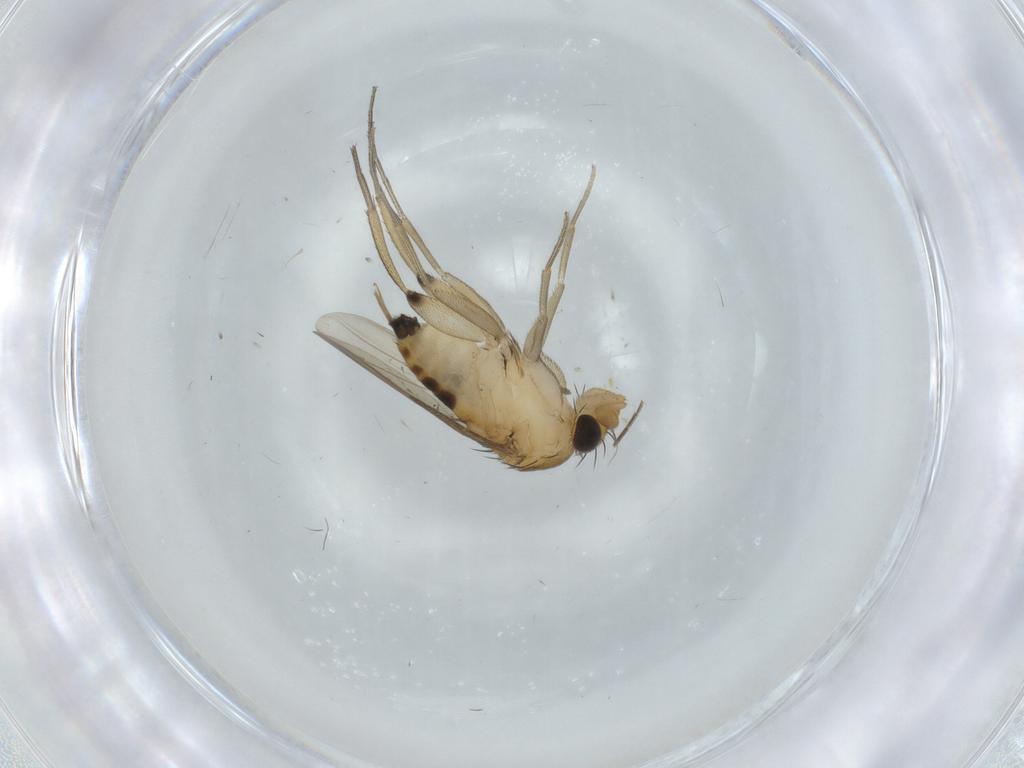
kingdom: Animalia
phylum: Arthropoda
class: Insecta
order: Diptera
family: Phoridae
